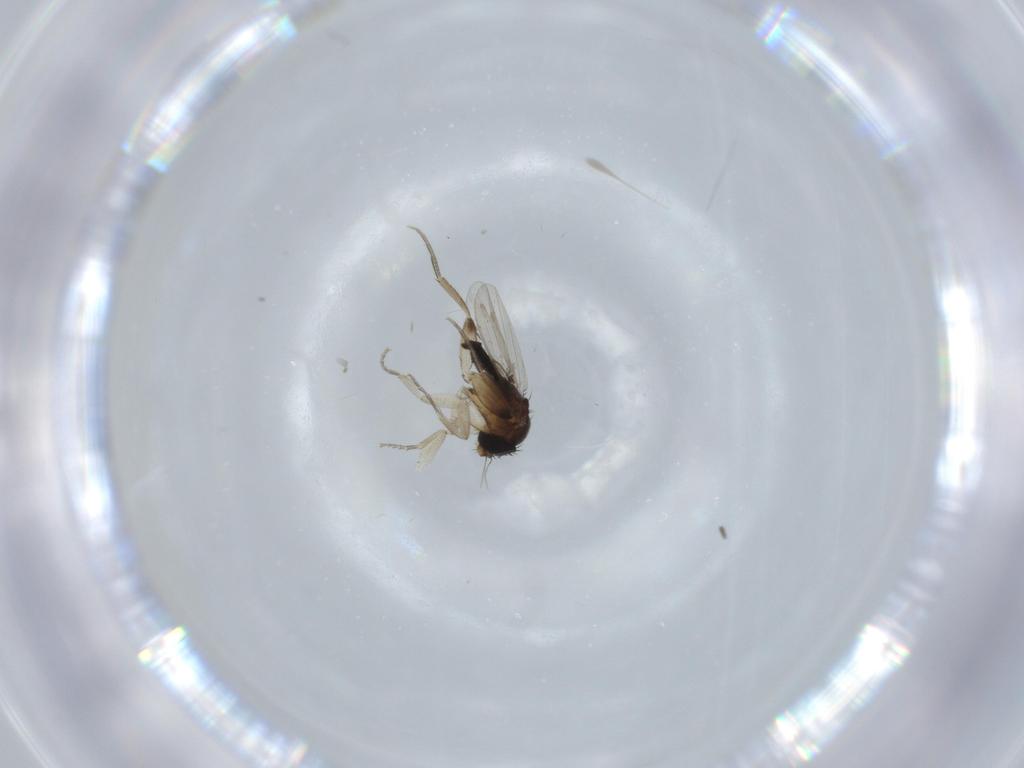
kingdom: Animalia
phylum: Arthropoda
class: Insecta
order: Diptera
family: Phoridae
